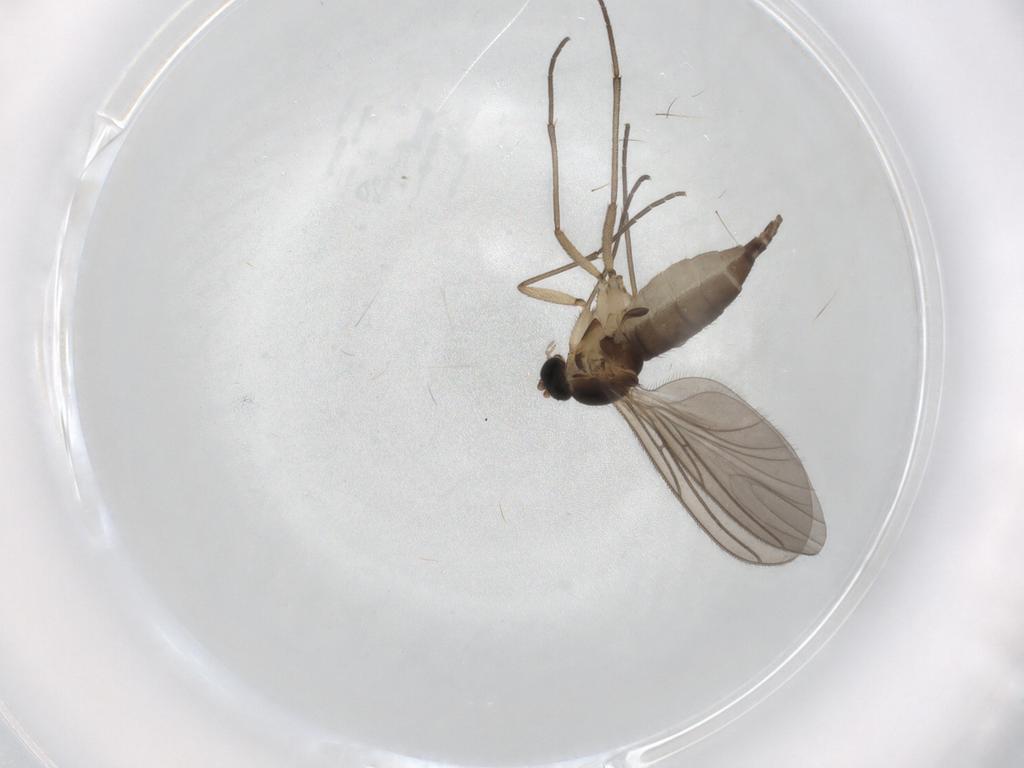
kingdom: Animalia
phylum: Arthropoda
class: Insecta
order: Diptera
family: Sciaridae
